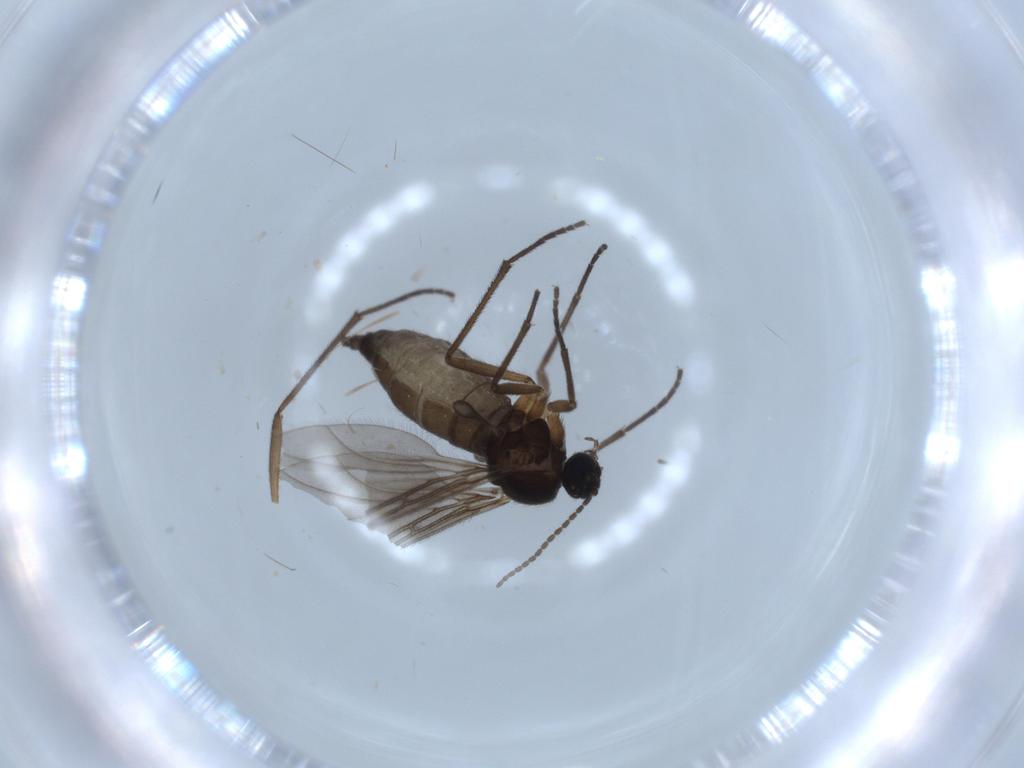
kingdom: Animalia
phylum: Arthropoda
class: Insecta
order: Diptera
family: Sciaridae
